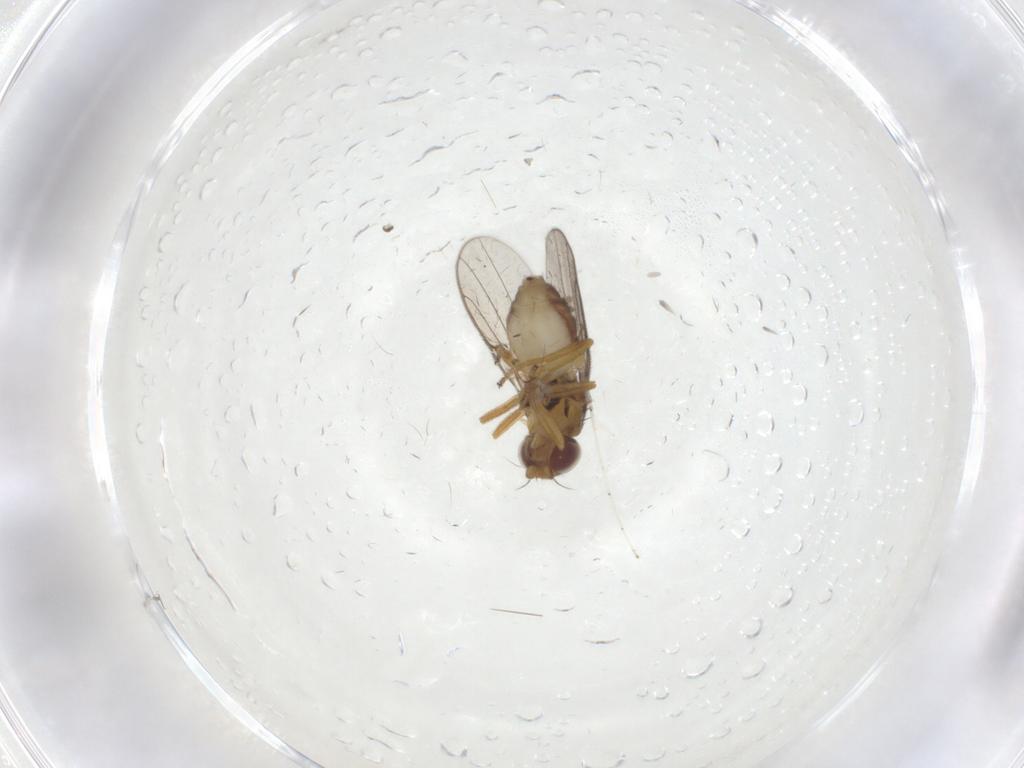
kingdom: Animalia
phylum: Arthropoda
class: Insecta
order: Diptera
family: Chloropidae
